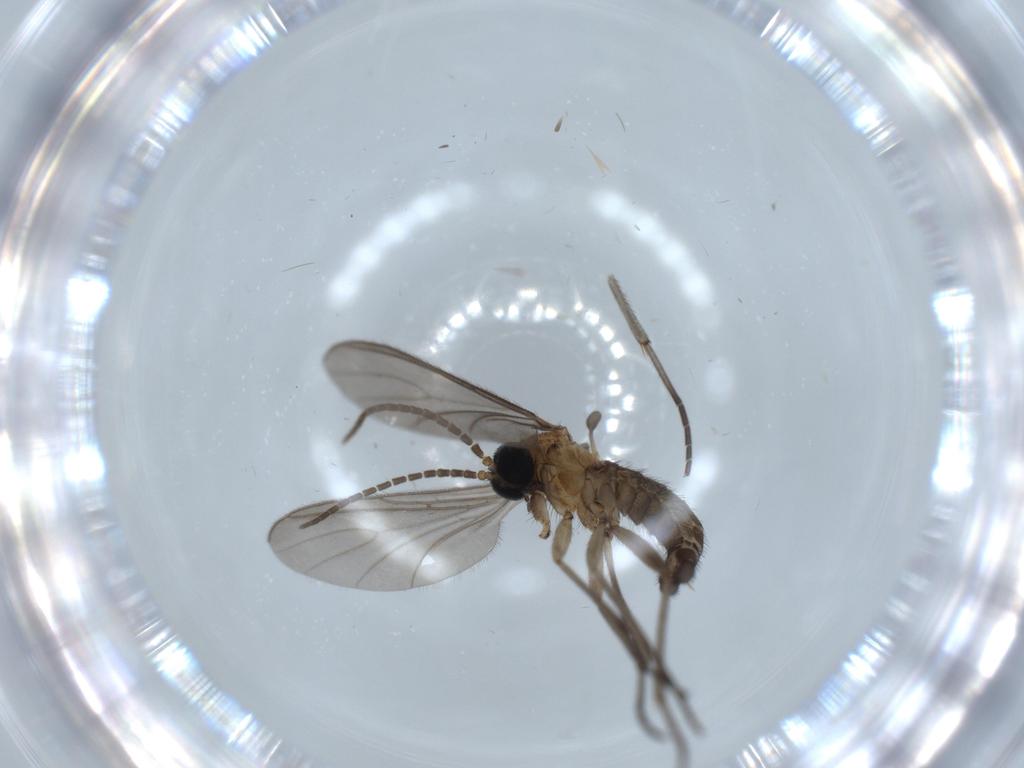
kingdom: Animalia
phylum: Arthropoda
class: Insecta
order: Diptera
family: Sciaridae
